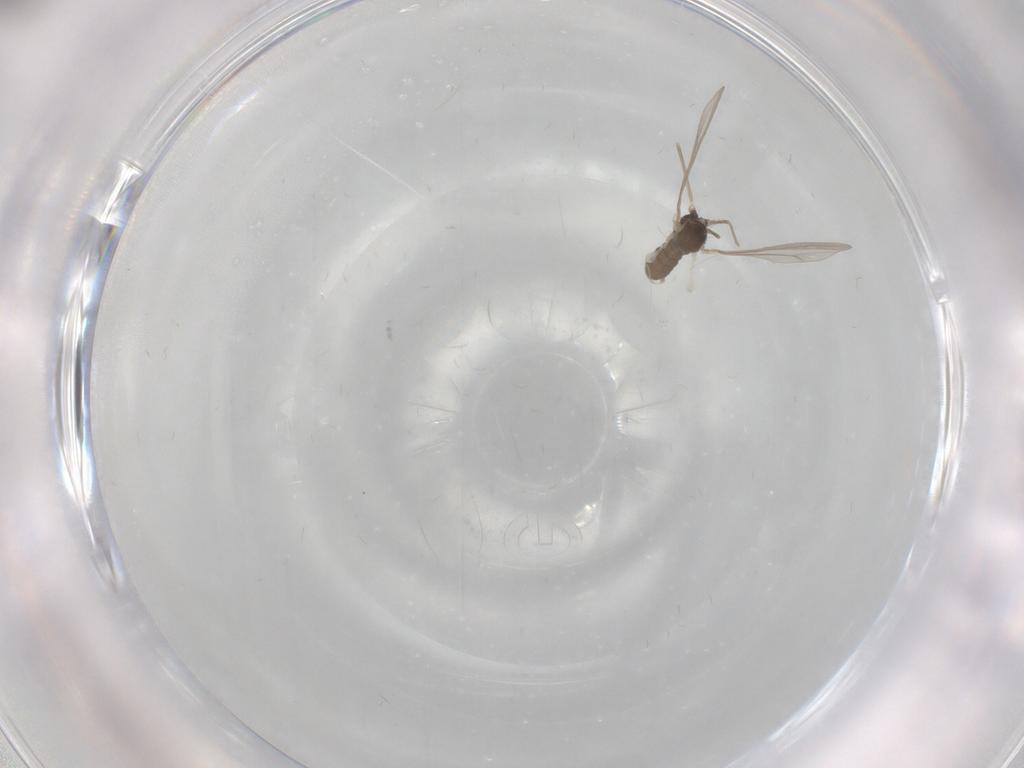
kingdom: Animalia
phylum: Arthropoda
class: Insecta
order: Diptera
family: Cecidomyiidae
